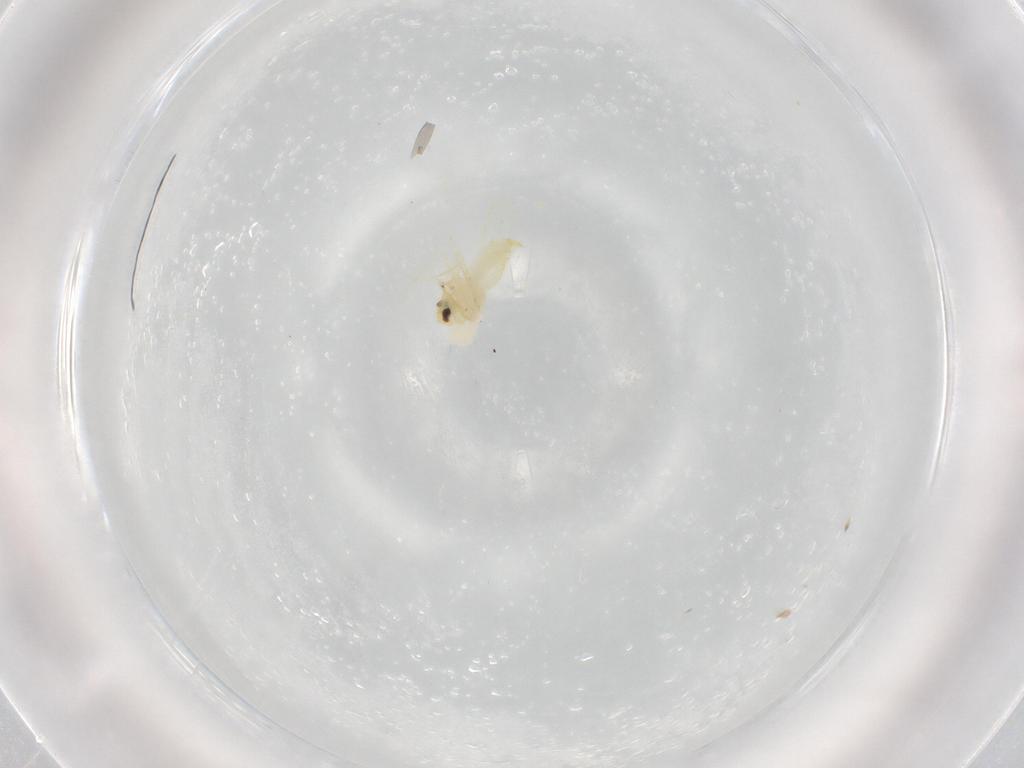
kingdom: Animalia
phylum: Arthropoda
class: Insecta
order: Hemiptera
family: Aleyrodidae
